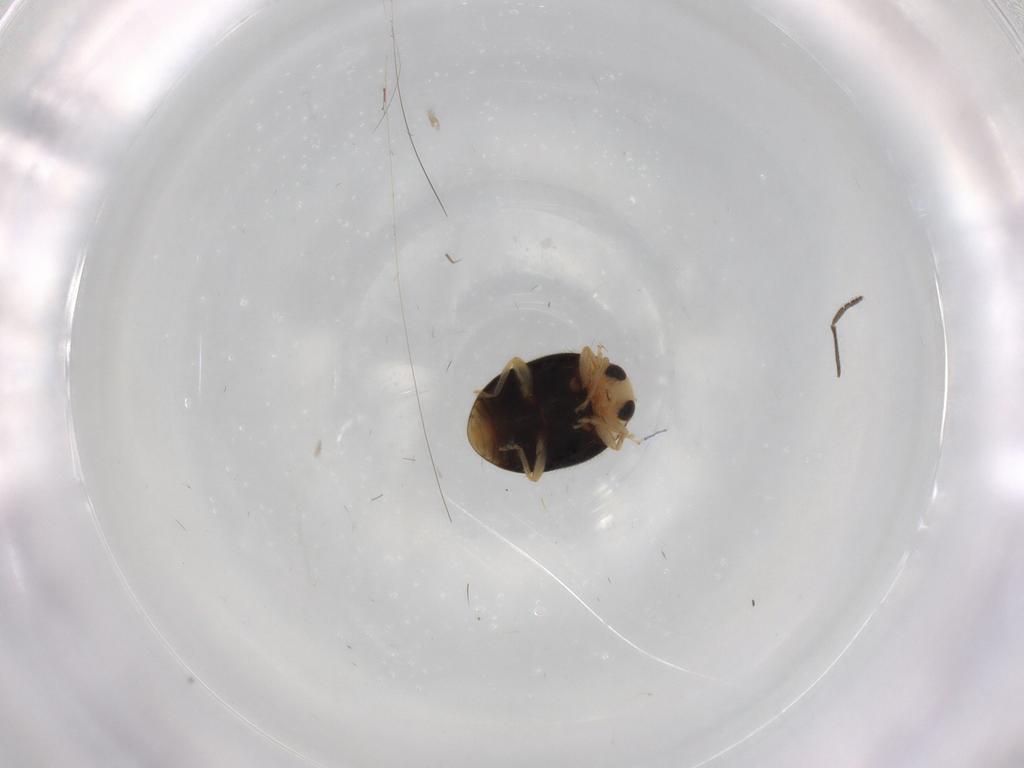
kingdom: Animalia
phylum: Arthropoda
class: Insecta
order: Coleoptera
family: Coccinellidae
